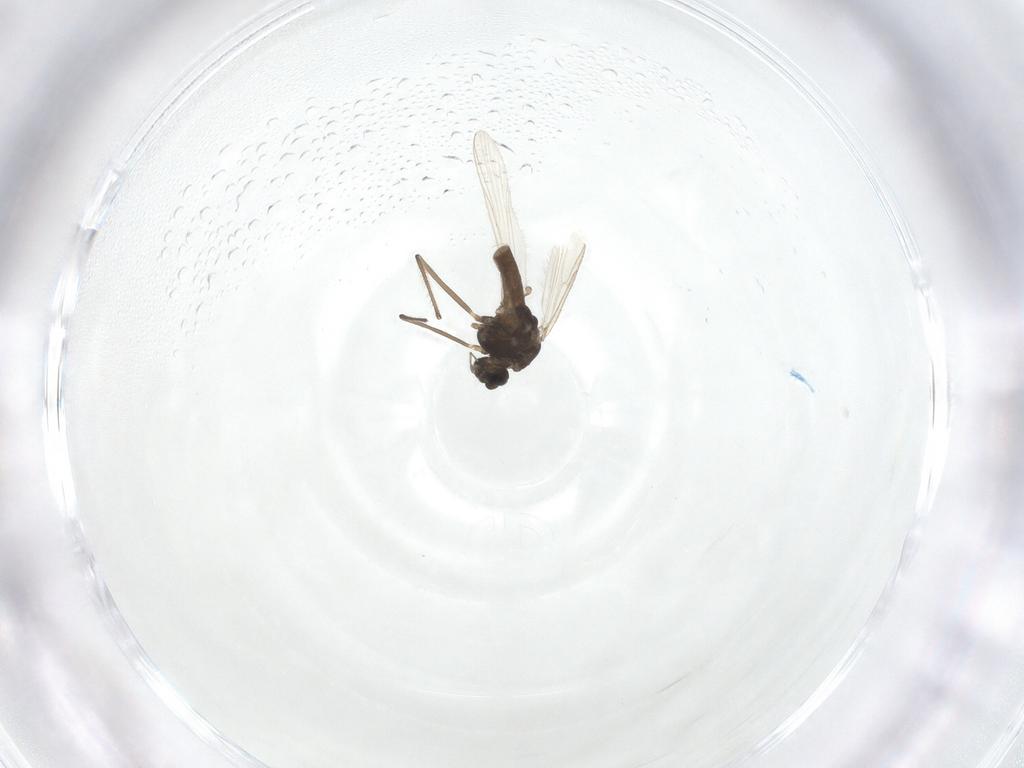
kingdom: Animalia
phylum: Arthropoda
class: Insecta
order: Diptera
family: Chironomidae
